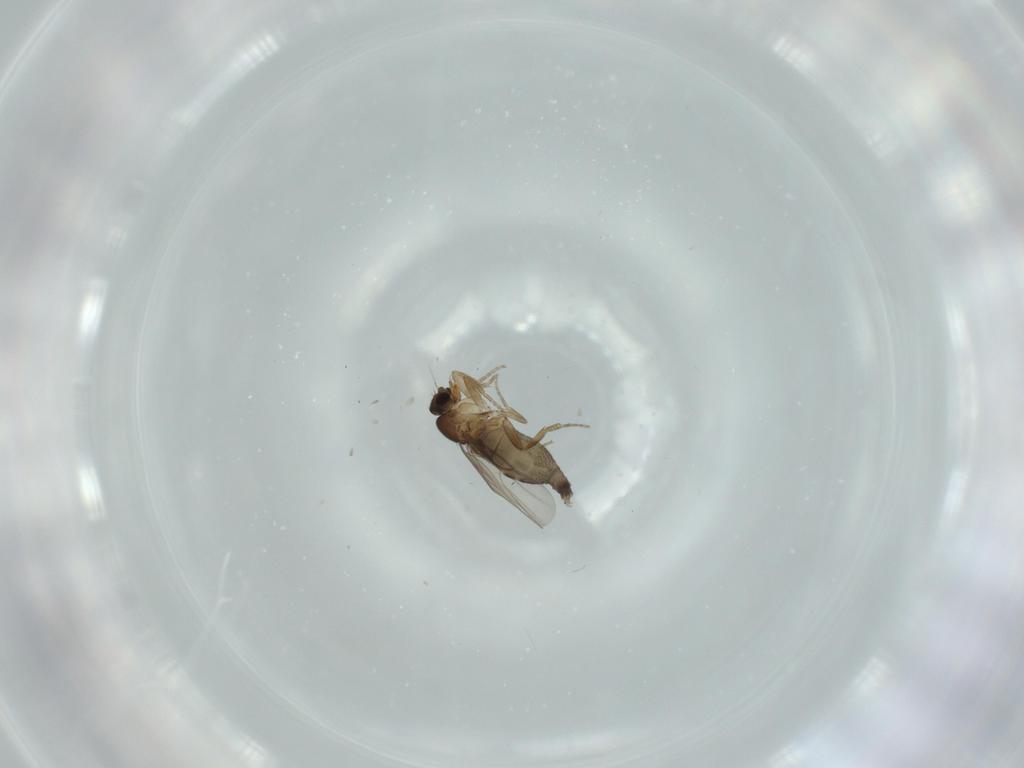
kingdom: Animalia
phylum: Arthropoda
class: Insecta
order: Diptera
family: Phoridae
